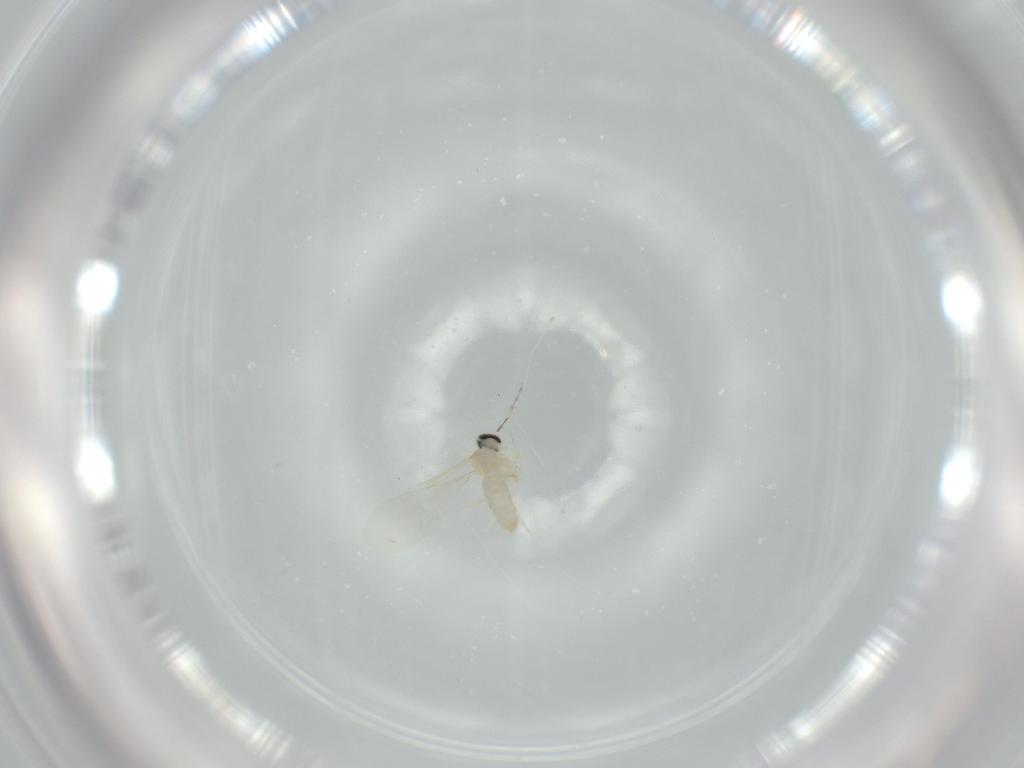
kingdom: Animalia
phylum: Arthropoda
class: Insecta
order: Diptera
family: Cecidomyiidae
